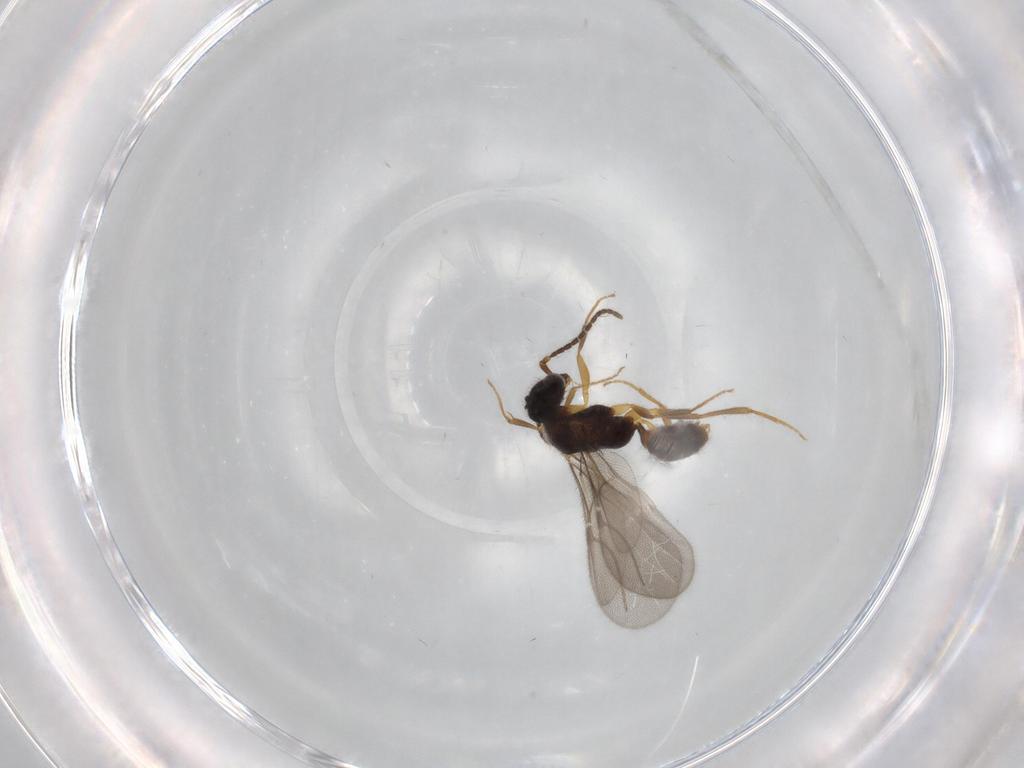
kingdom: Animalia
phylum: Arthropoda
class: Insecta
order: Hymenoptera
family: Bethylidae
